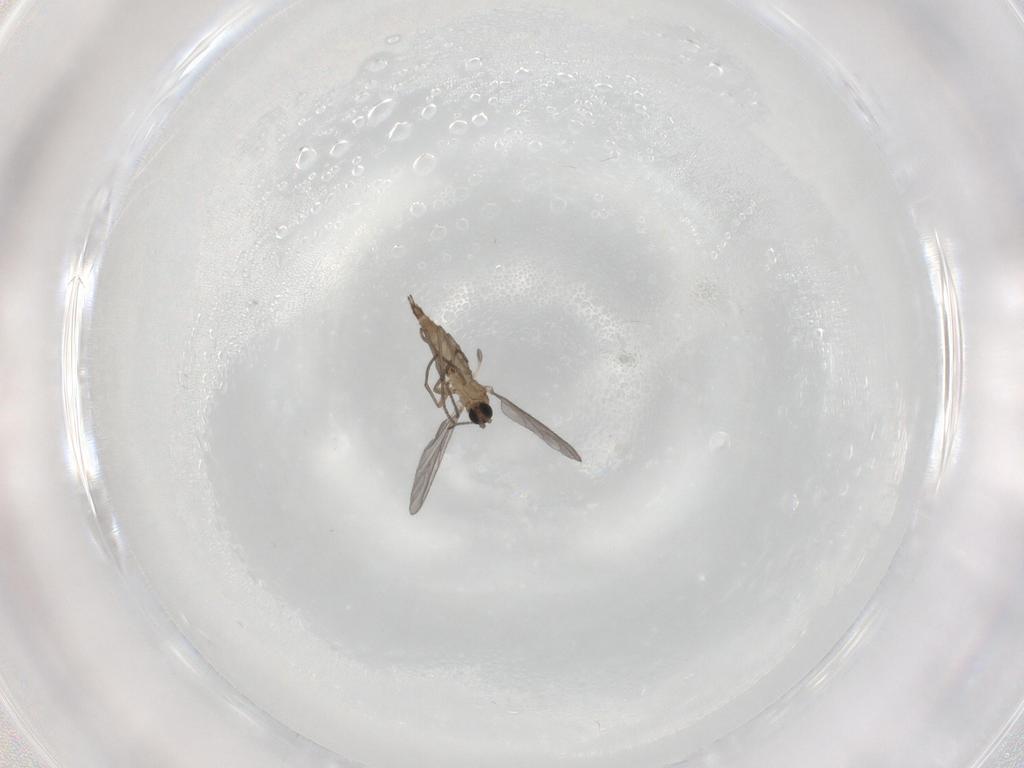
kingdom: Animalia
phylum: Arthropoda
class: Insecta
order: Diptera
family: Sciaridae
